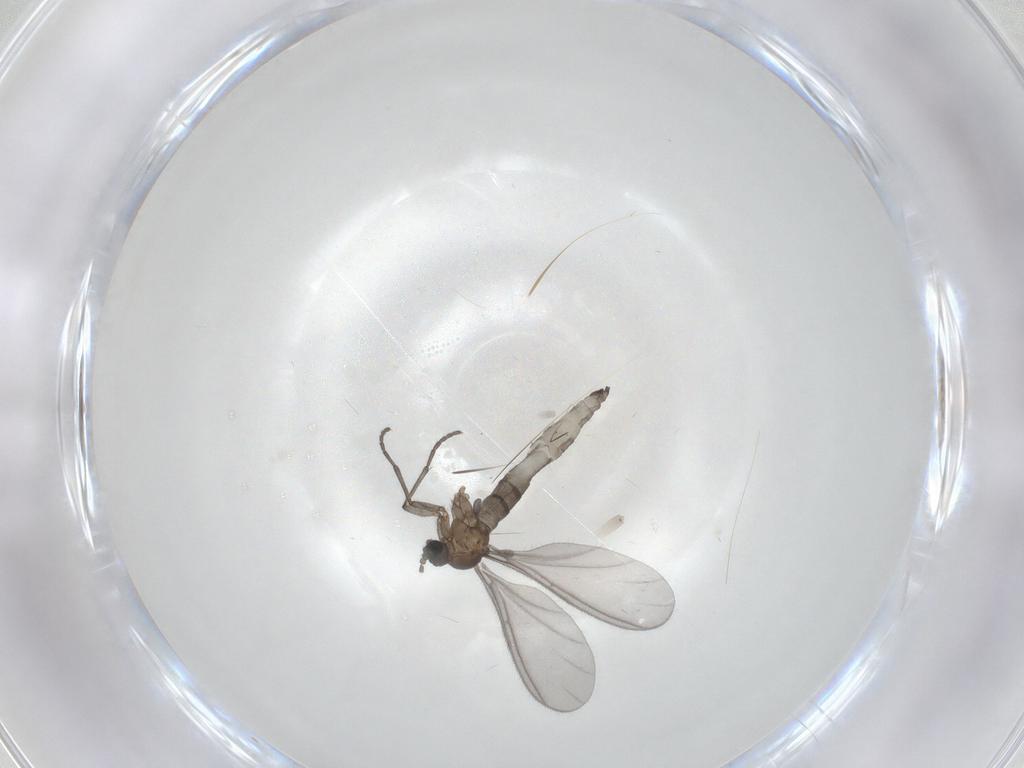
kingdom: Animalia
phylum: Arthropoda
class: Insecta
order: Diptera
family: Sciaridae
